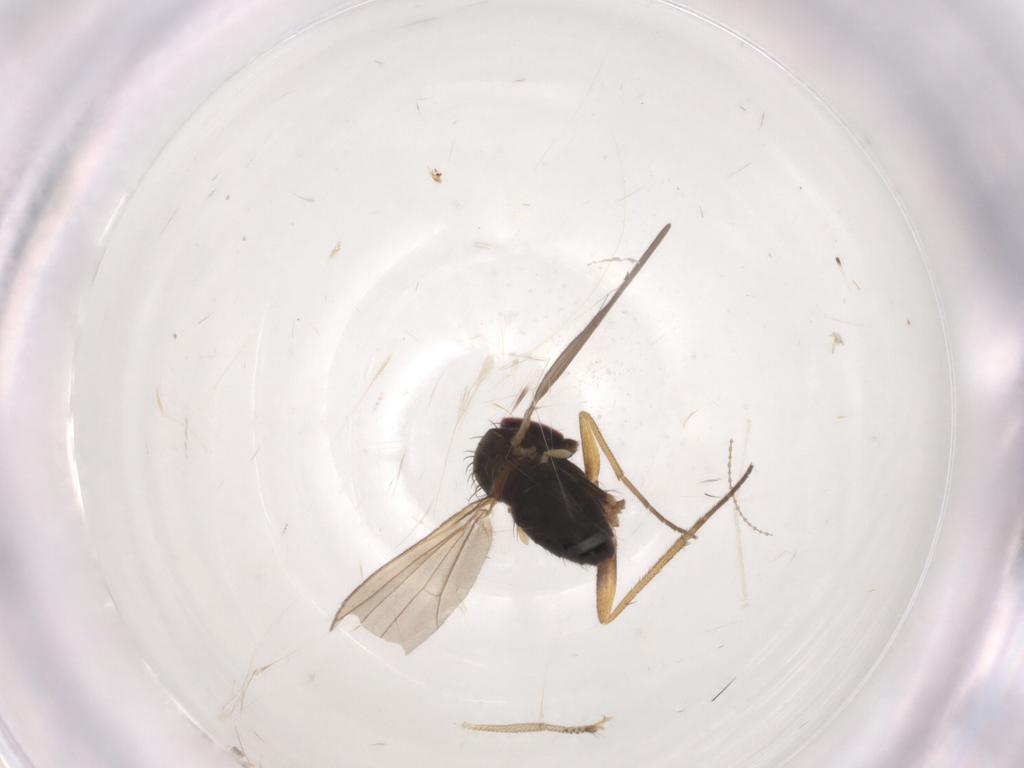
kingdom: Animalia
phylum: Arthropoda
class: Insecta
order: Diptera
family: Dolichopodidae
